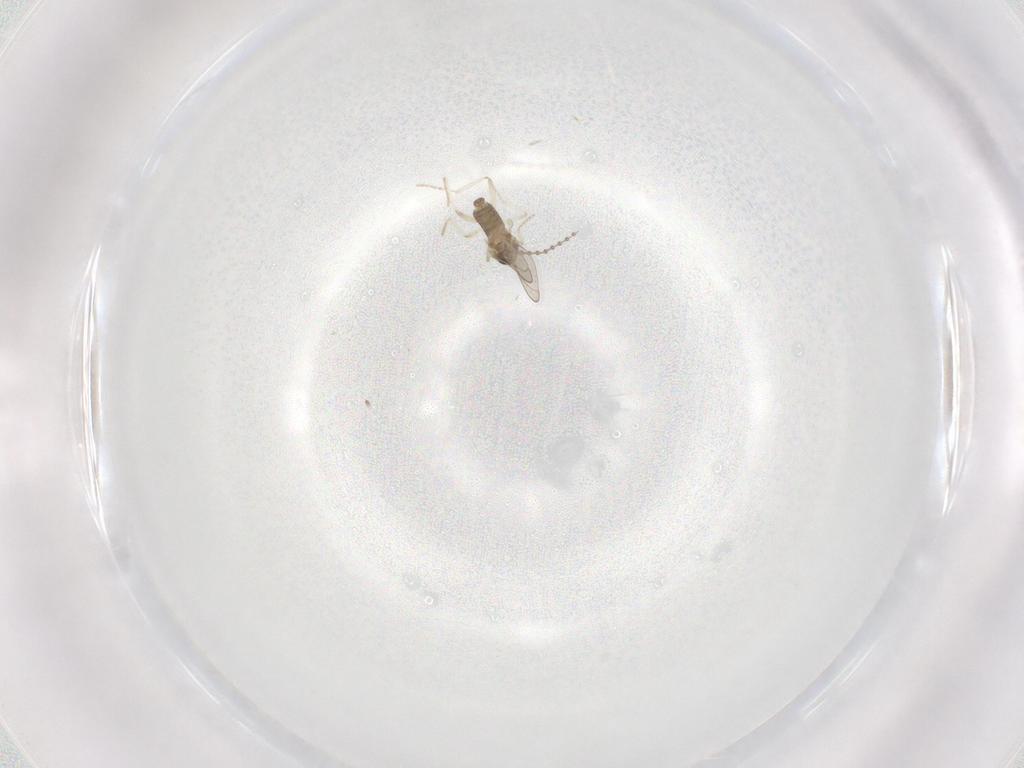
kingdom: Animalia
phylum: Arthropoda
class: Insecta
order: Diptera
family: Cecidomyiidae
